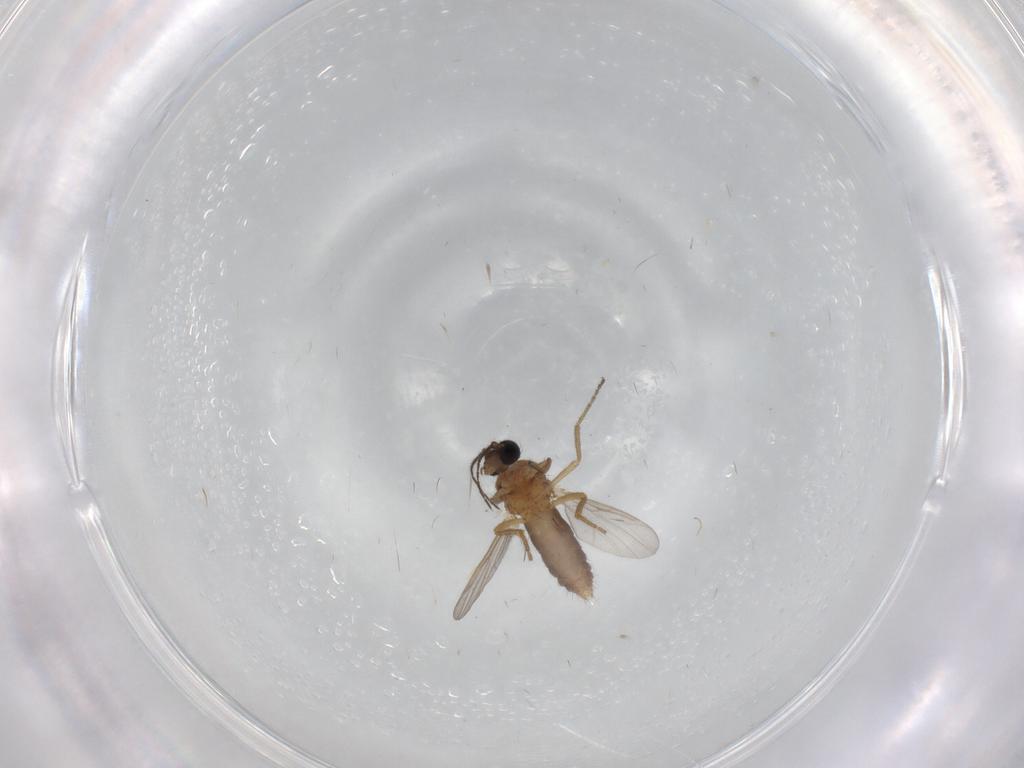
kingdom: Animalia
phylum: Arthropoda
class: Insecta
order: Diptera
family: Ceratopogonidae
